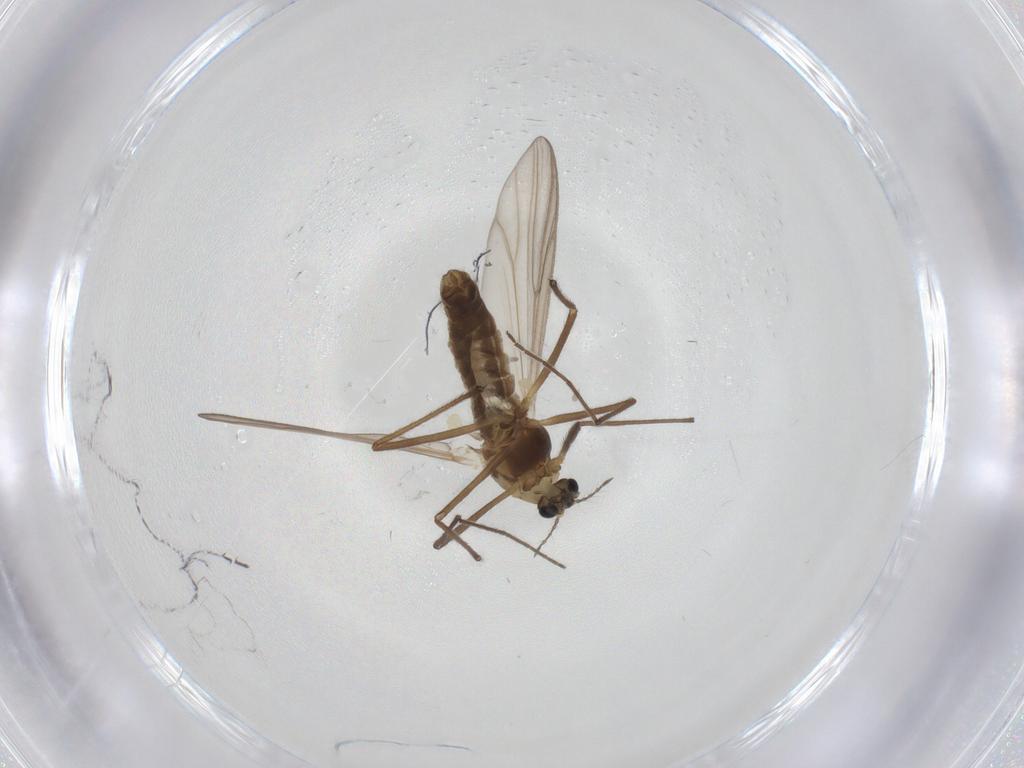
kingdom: Animalia
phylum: Arthropoda
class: Insecta
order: Diptera
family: Chironomidae
